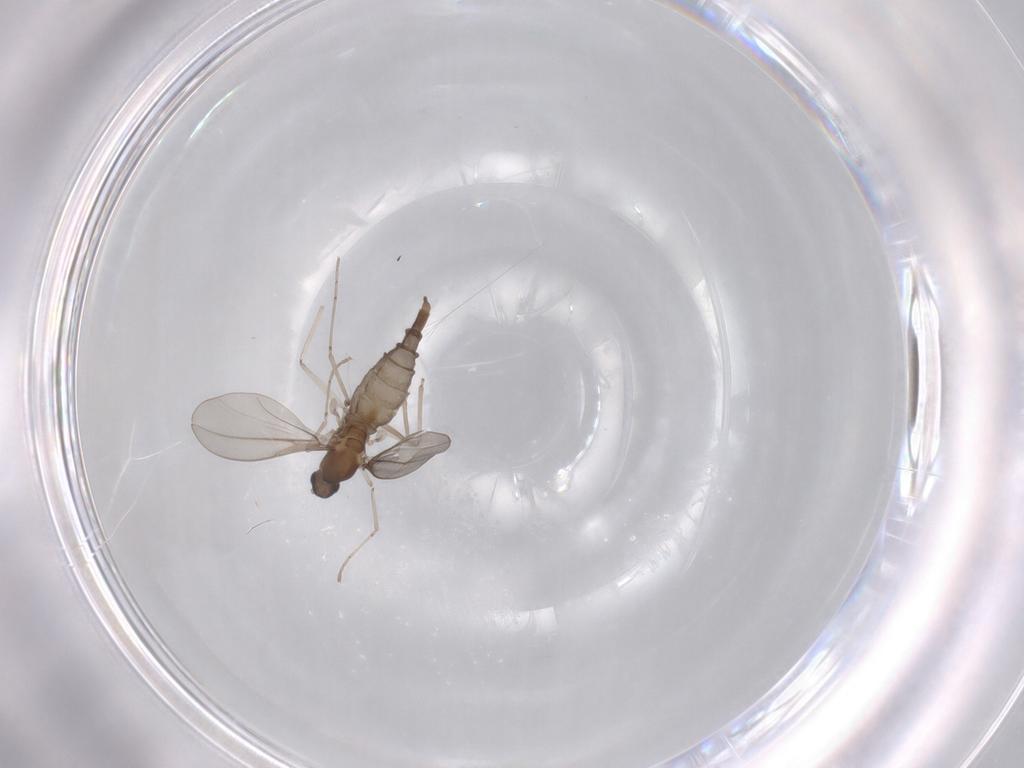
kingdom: Animalia
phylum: Arthropoda
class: Insecta
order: Diptera
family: Cecidomyiidae
